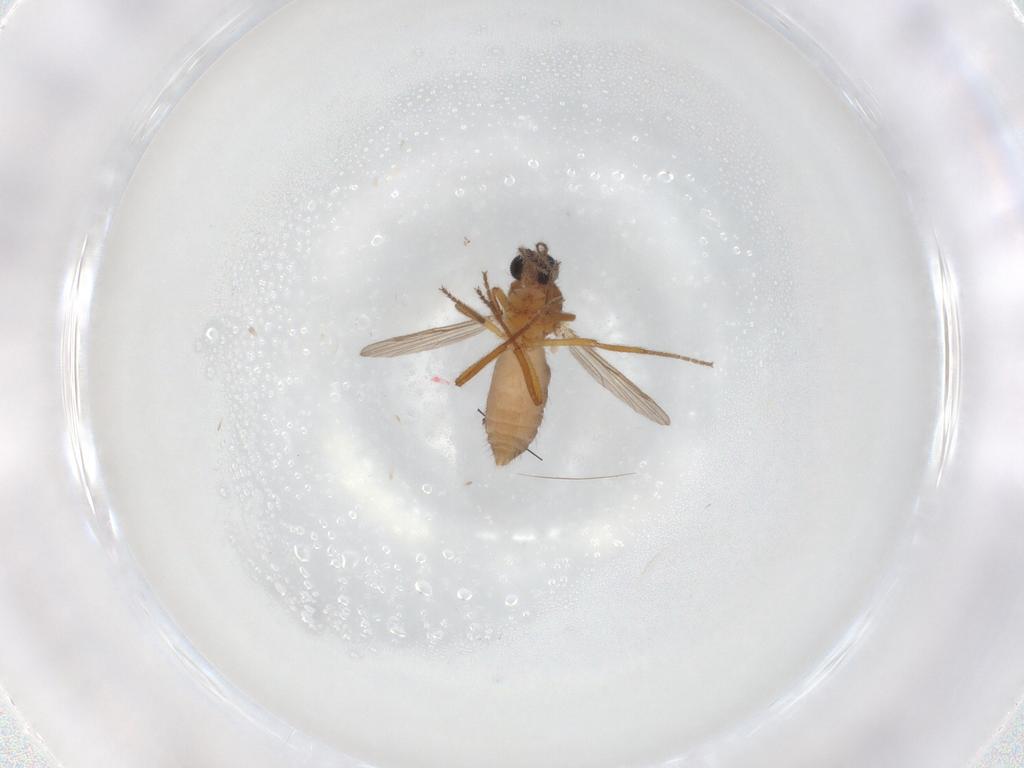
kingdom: Animalia
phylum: Arthropoda
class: Insecta
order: Diptera
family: Ceratopogonidae
